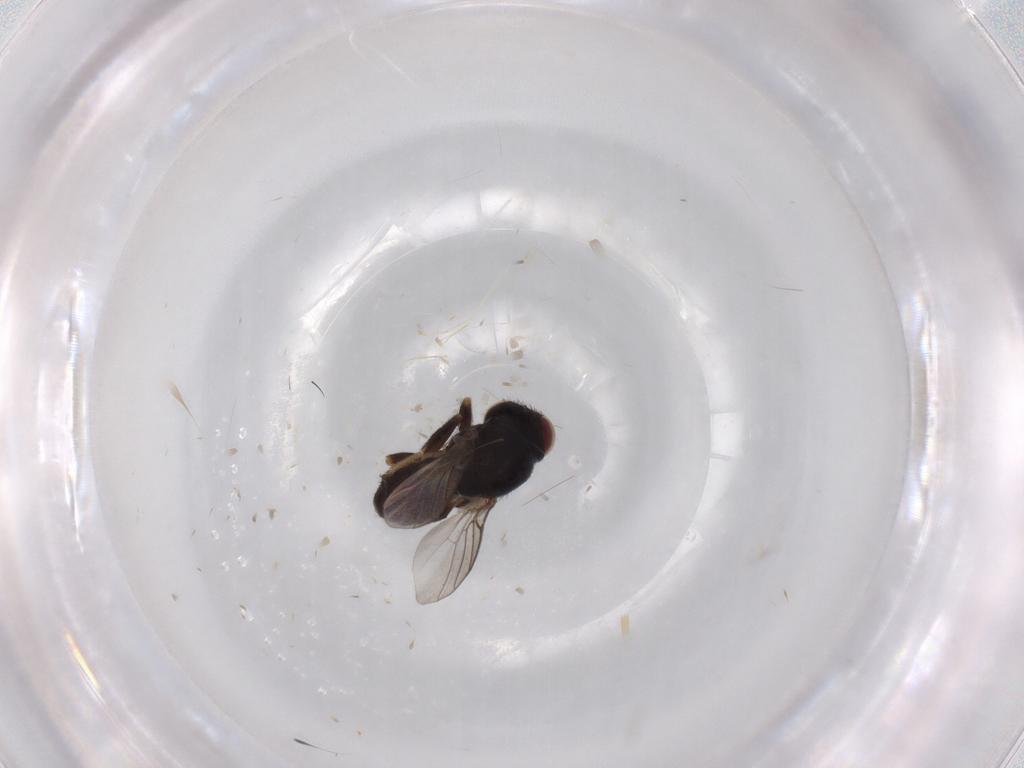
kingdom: Animalia
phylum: Arthropoda
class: Insecta
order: Diptera
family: Chloropidae
